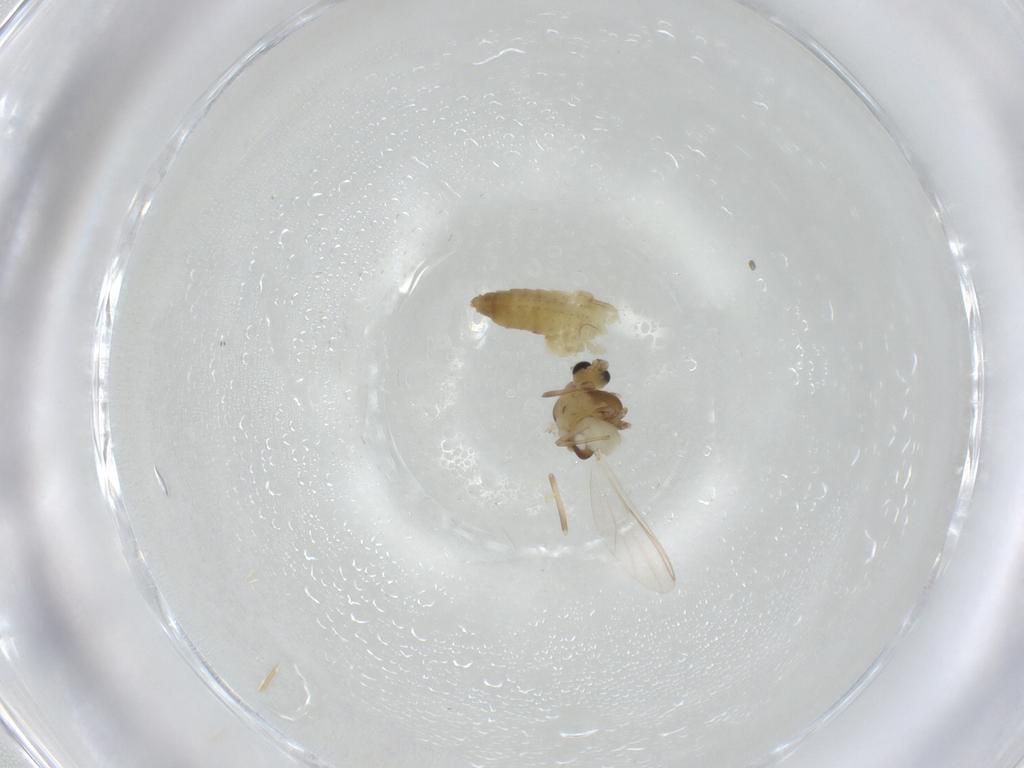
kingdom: Animalia
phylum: Arthropoda
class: Insecta
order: Diptera
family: Chironomidae
